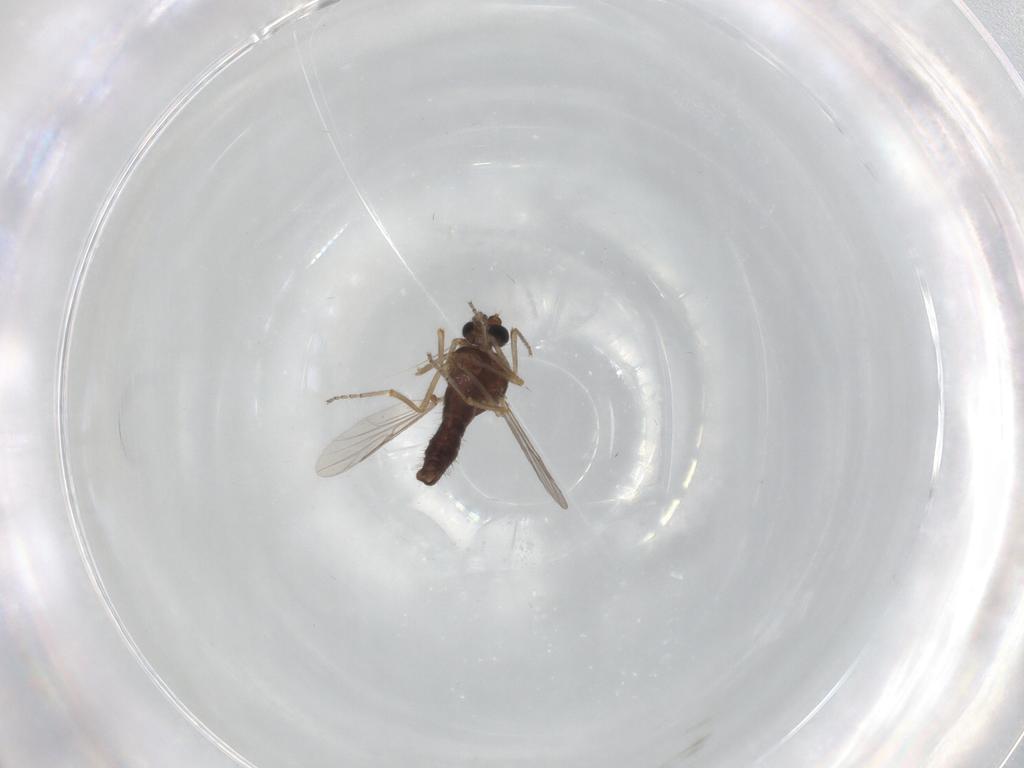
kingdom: Animalia
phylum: Arthropoda
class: Insecta
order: Diptera
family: Ceratopogonidae
